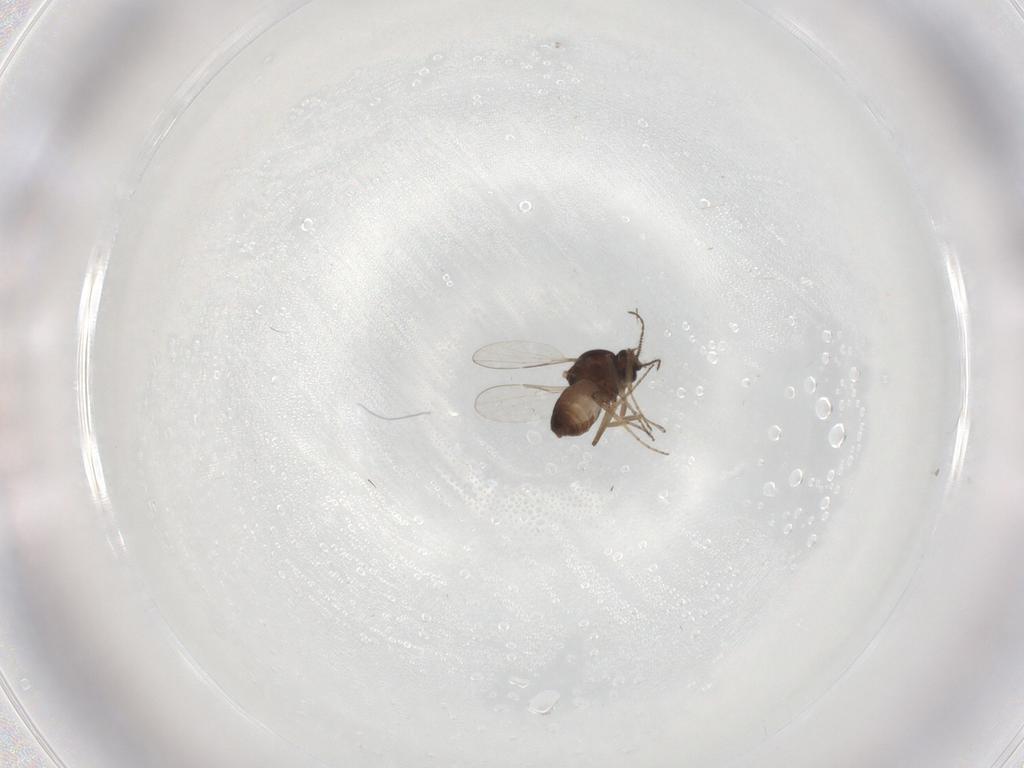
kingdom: Animalia
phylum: Arthropoda
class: Insecta
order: Diptera
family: Ceratopogonidae
